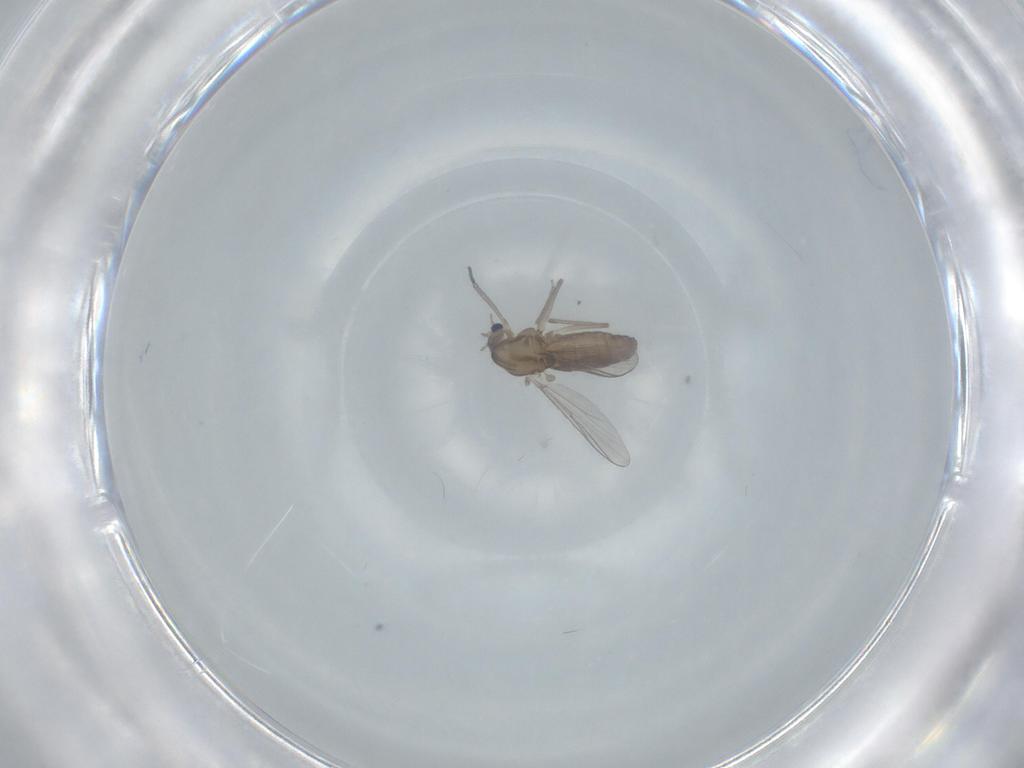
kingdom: Animalia
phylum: Arthropoda
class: Insecta
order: Diptera
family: Chironomidae
